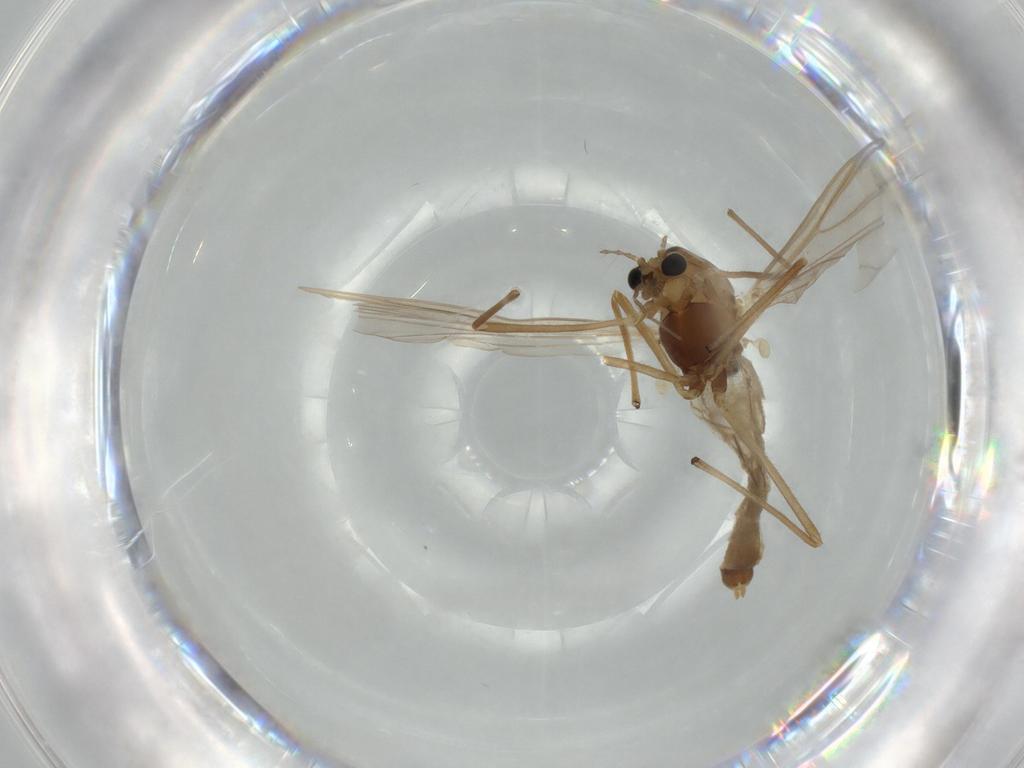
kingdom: Animalia
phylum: Arthropoda
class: Insecta
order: Diptera
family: Chironomidae
